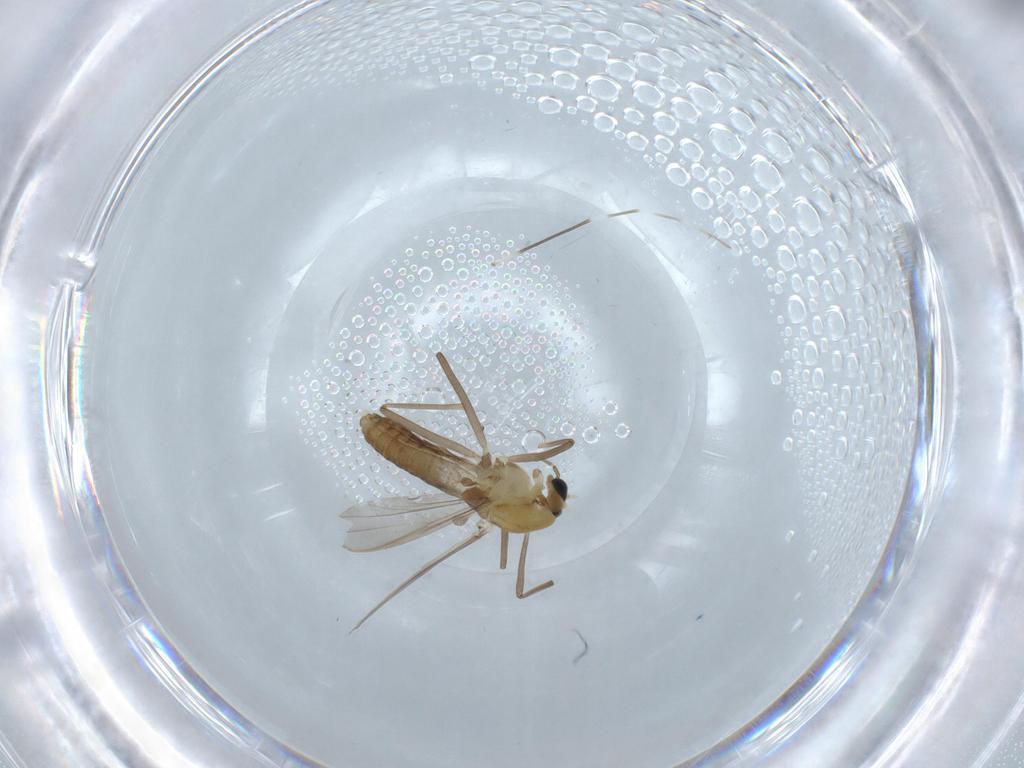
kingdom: Animalia
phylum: Arthropoda
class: Insecta
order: Diptera
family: Chironomidae
